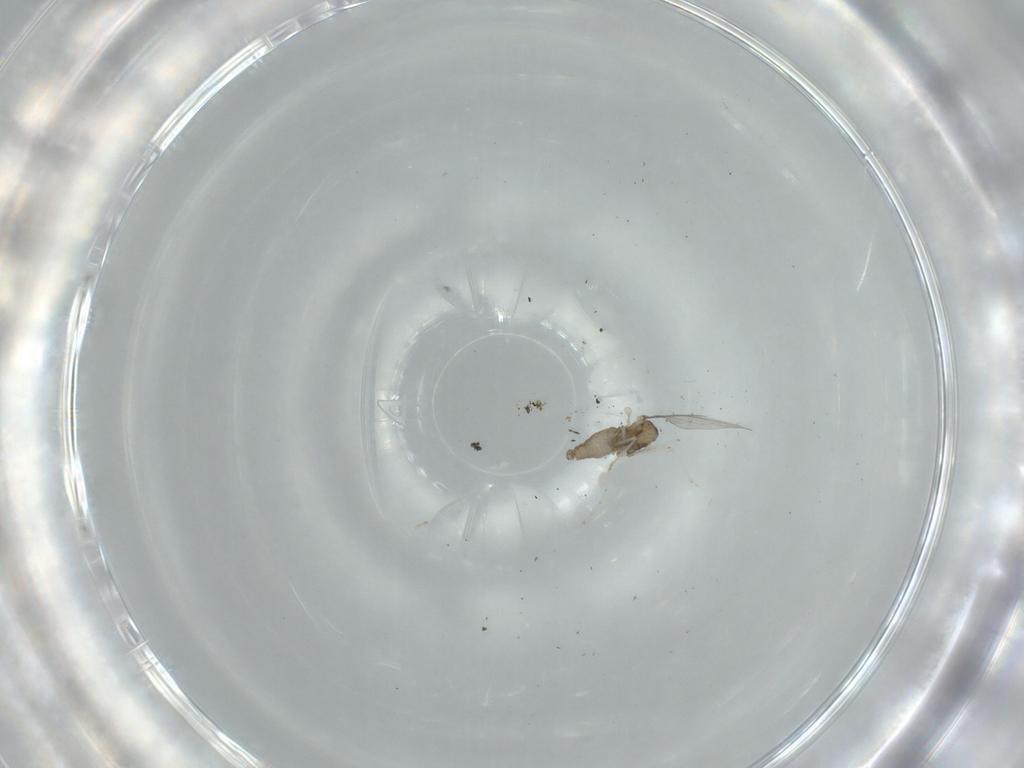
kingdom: Animalia
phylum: Arthropoda
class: Insecta
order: Diptera
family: Cecidomyiidae
